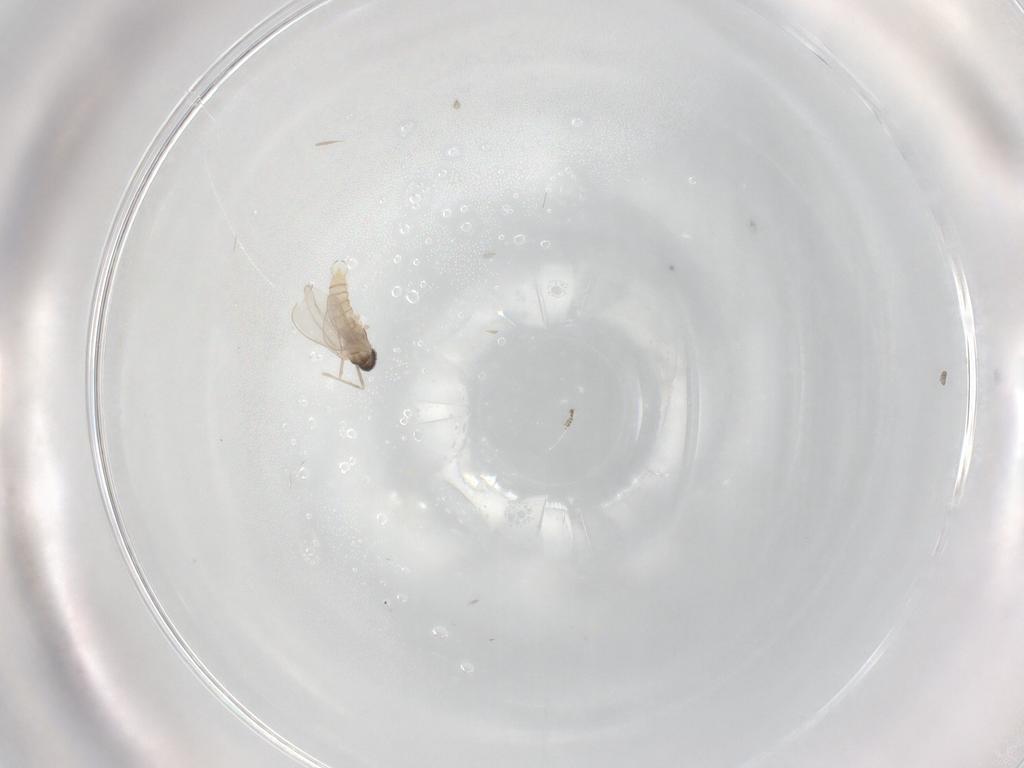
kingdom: Animalia
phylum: Arthropoda
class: Insecta
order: Diptera
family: Cecidomyiidae
